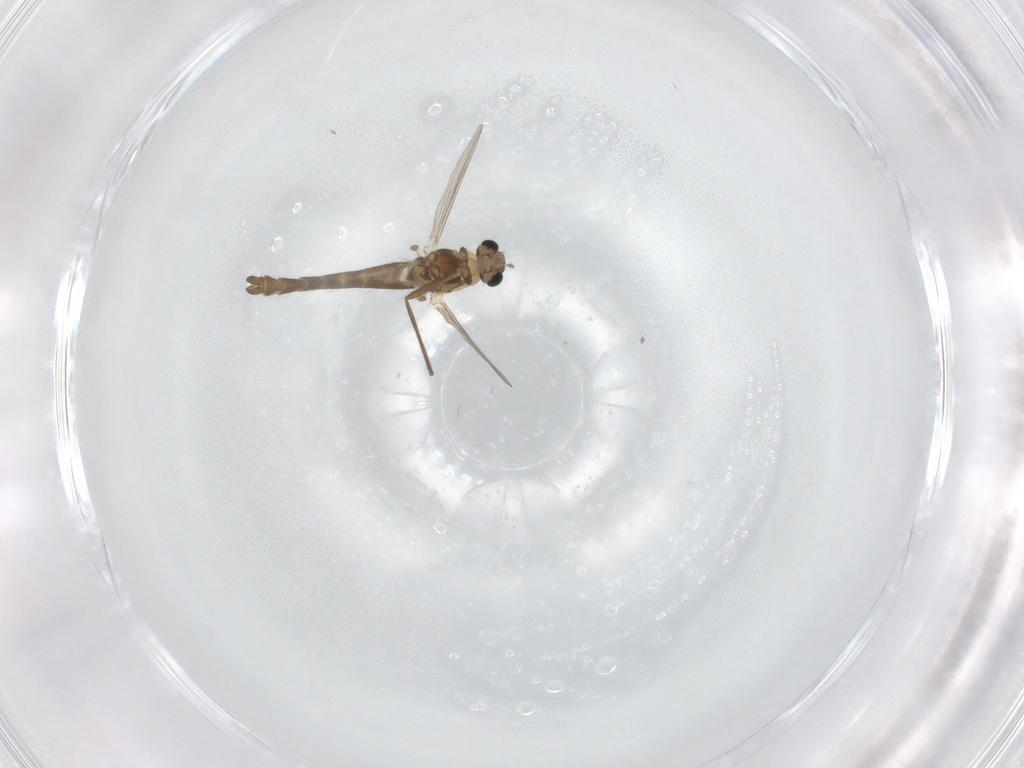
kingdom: Animalia
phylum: Arthropoda
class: Insecta
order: Diptera
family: Chironomidae
